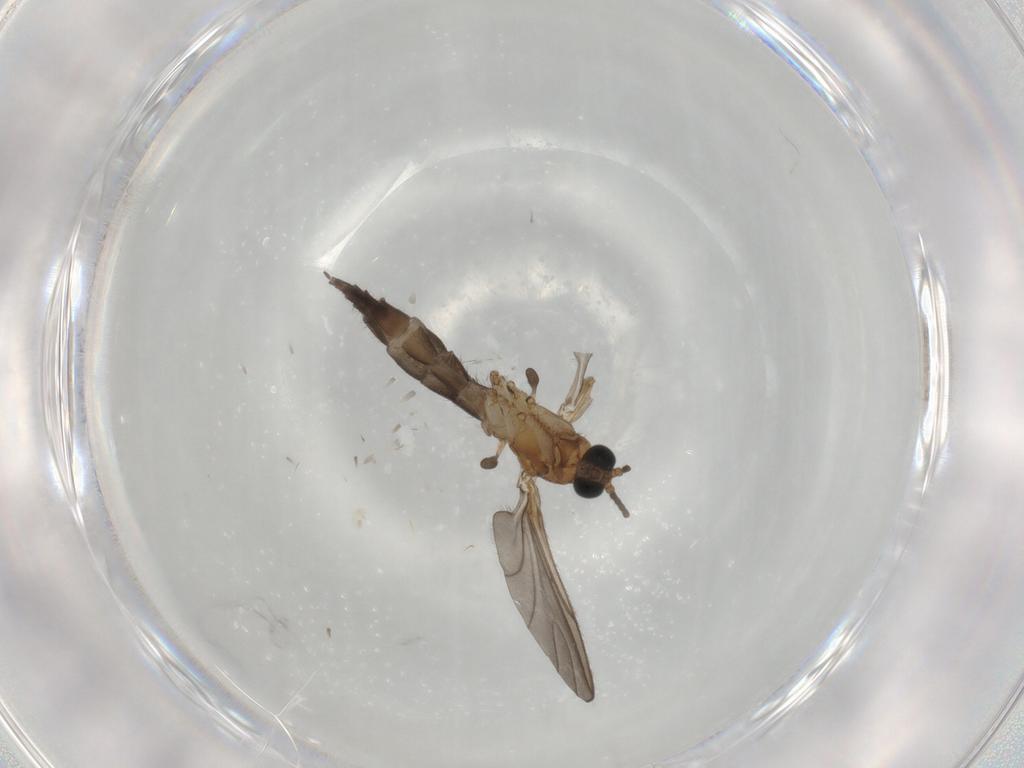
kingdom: Animalia
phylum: Arthropoda
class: Insecta
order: Diptera
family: Sciaridae
